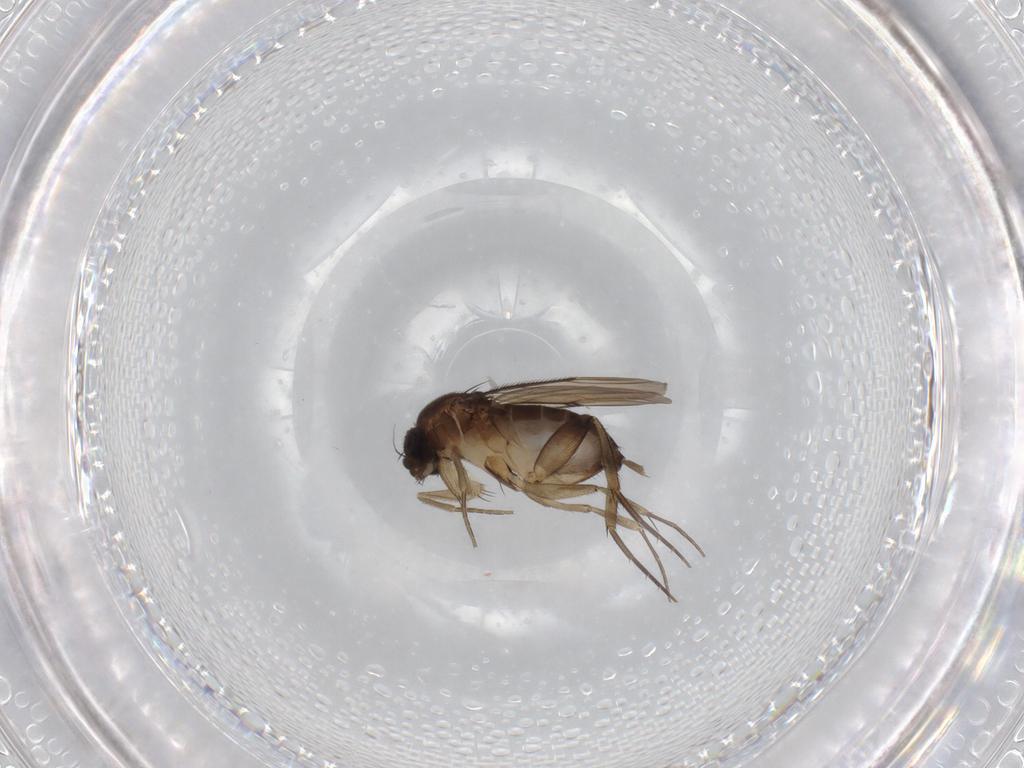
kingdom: Animalia
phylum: Arthropoda
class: Insecta
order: Diptera
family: Phoridae
